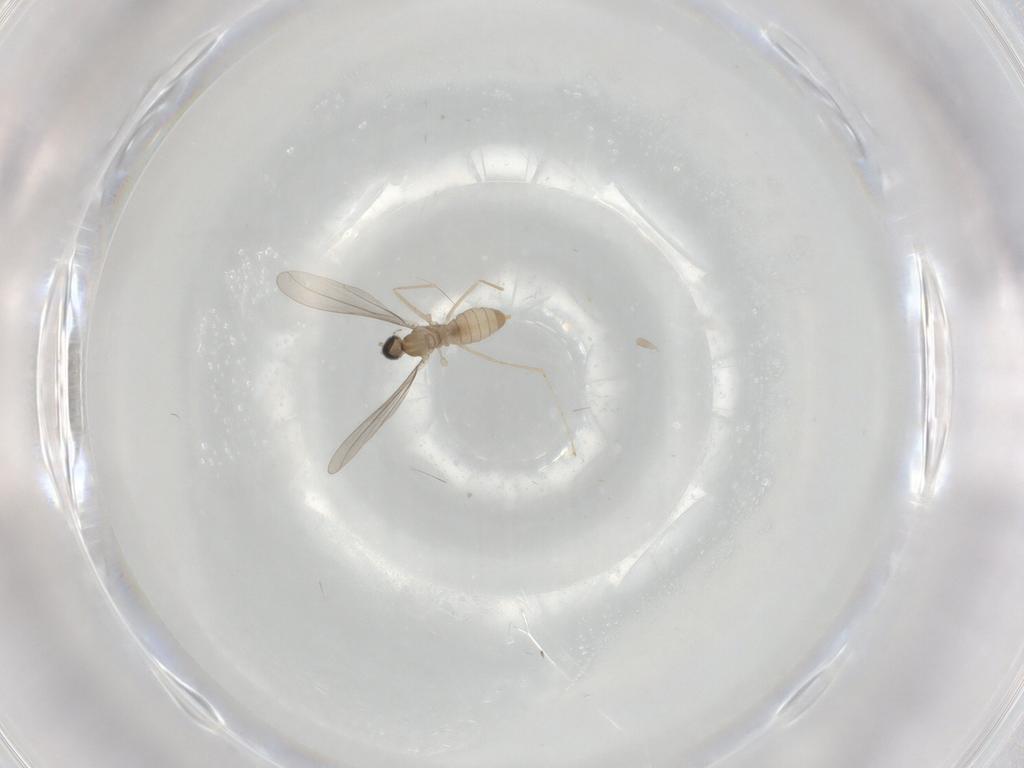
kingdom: Animalia
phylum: Arthropoda
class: Insecta
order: Diptera
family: Cecidomyiidae
